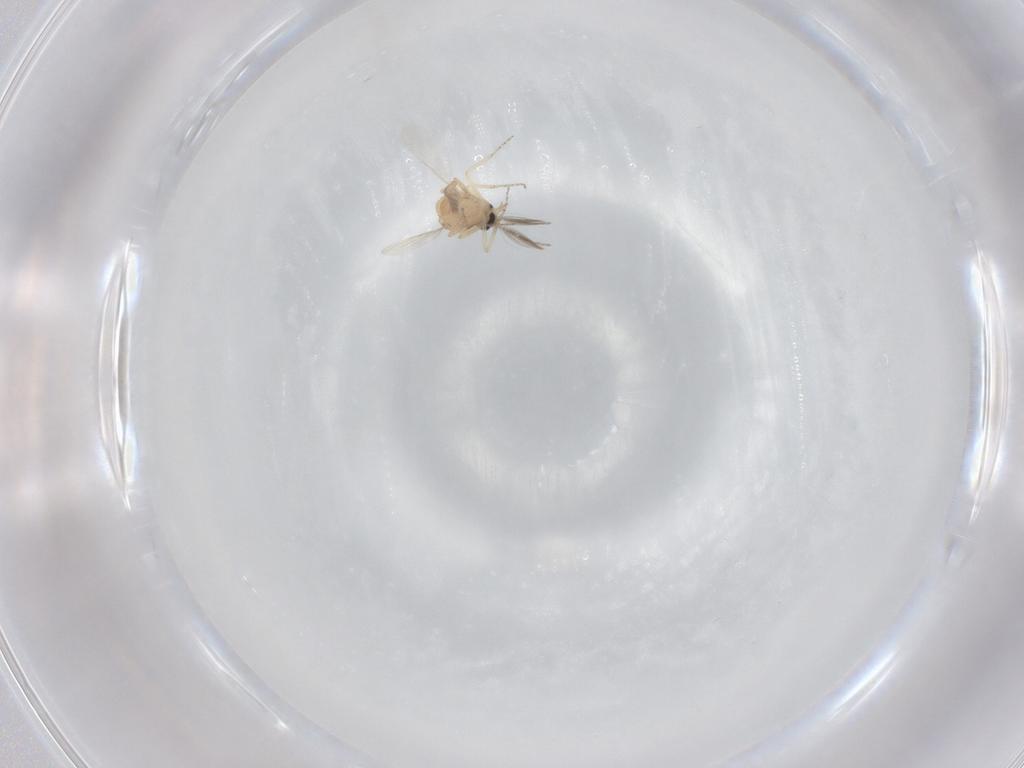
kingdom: Animalia
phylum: Arthropoda
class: Insecta
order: Diptera
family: Ceratopogonidae
